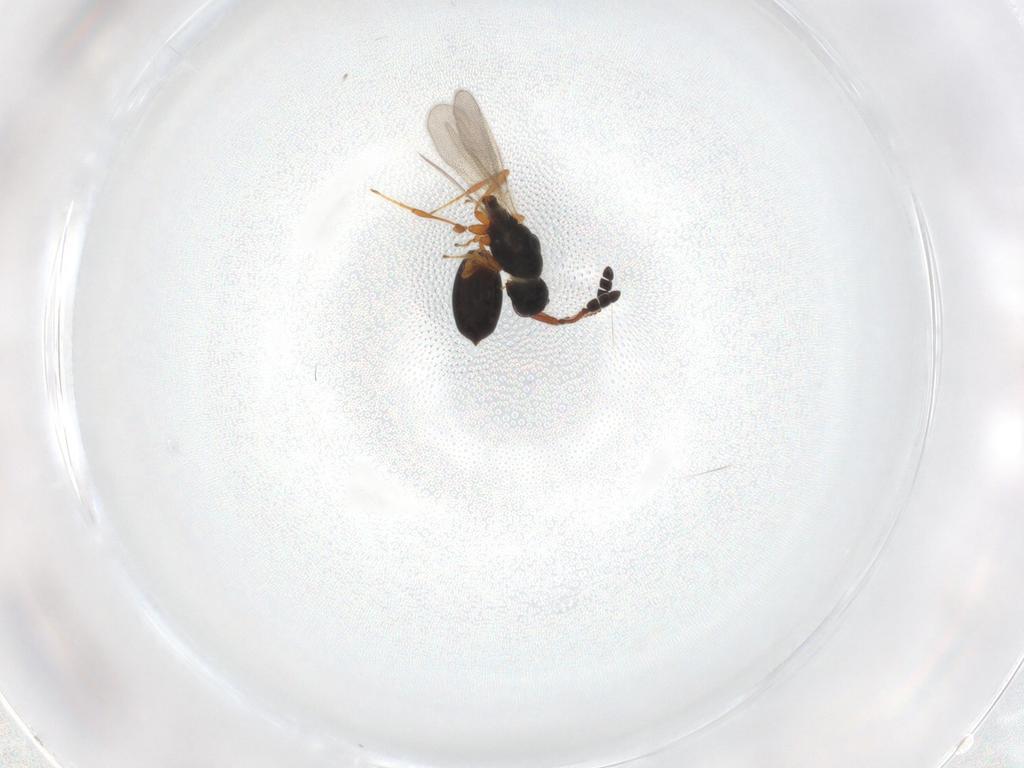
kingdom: Animalia
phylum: Arthropoda
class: Insecta
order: Hymenoptera
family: Diapriidae
